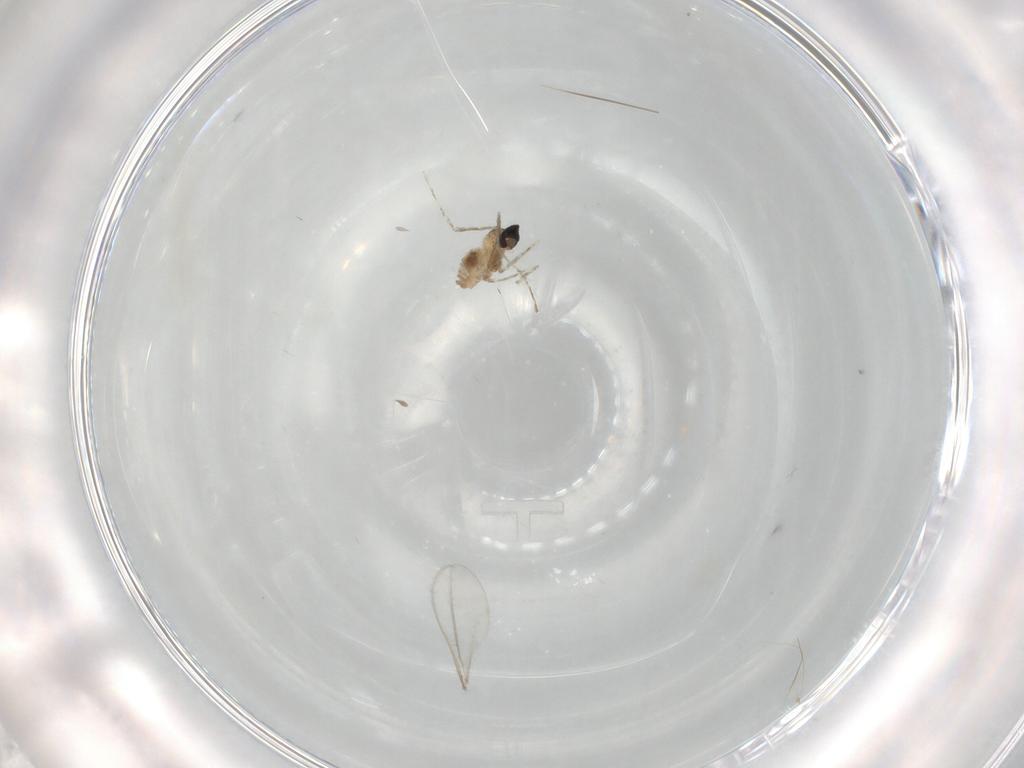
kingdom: Animalia
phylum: Arthropoda
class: Insecta
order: Diptera
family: Cecidomyiidae
